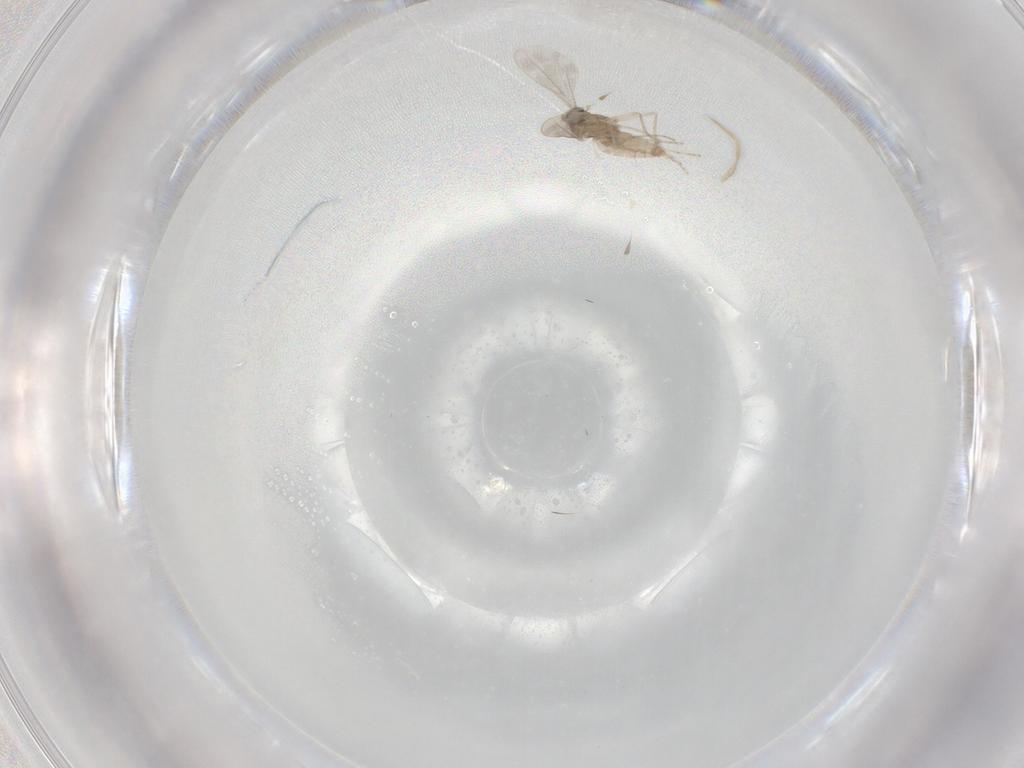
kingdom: Animalia
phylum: Arthropoda
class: Insecta
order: Diptera
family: Cecidomyiidae
